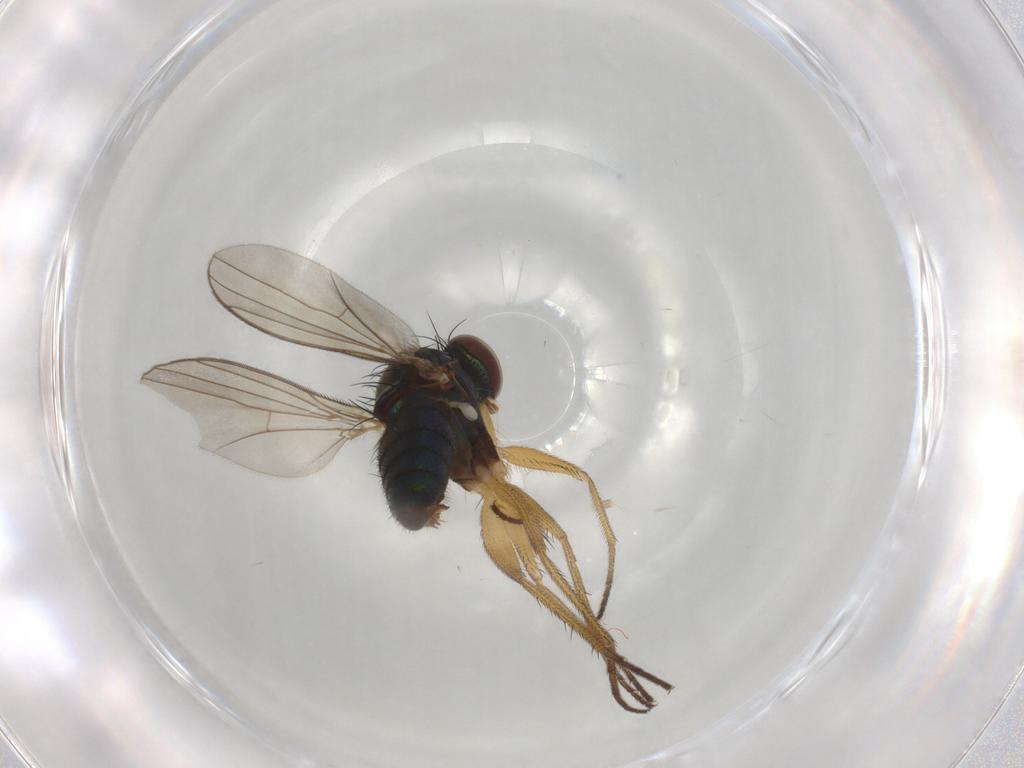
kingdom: Animalia
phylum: Arthropoda
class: Insecta
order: Diptera
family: Dolichopodidae
